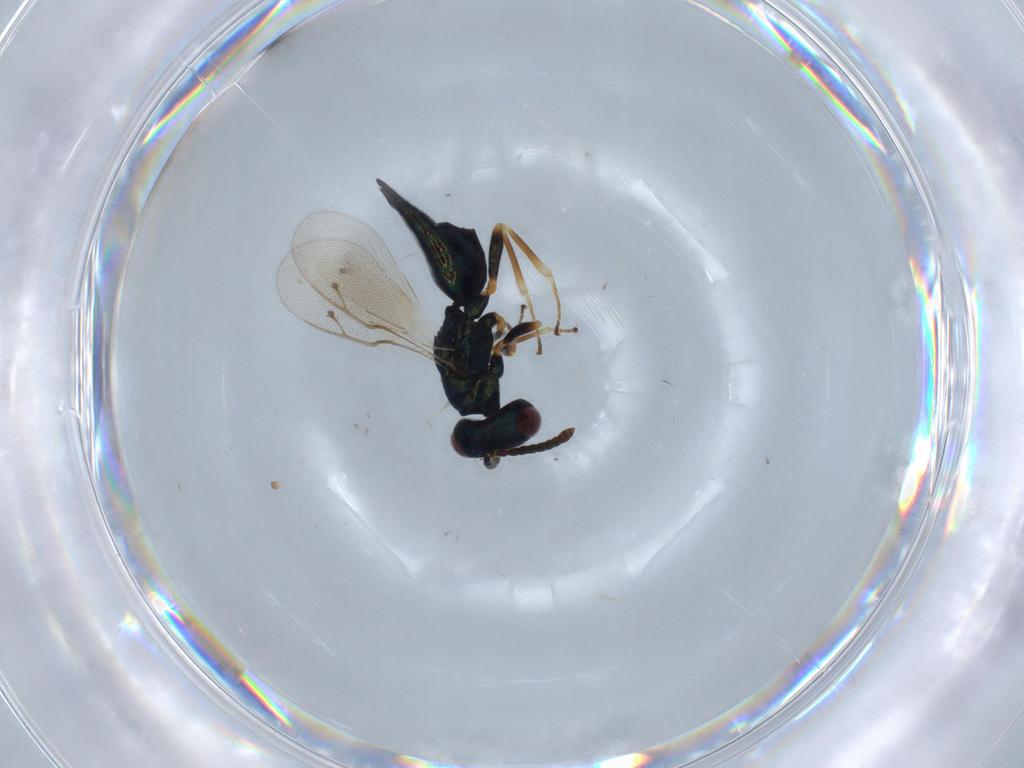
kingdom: Animalia
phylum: Arthropoda
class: Insecta
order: Hymenoptera
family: Pteromalidae
